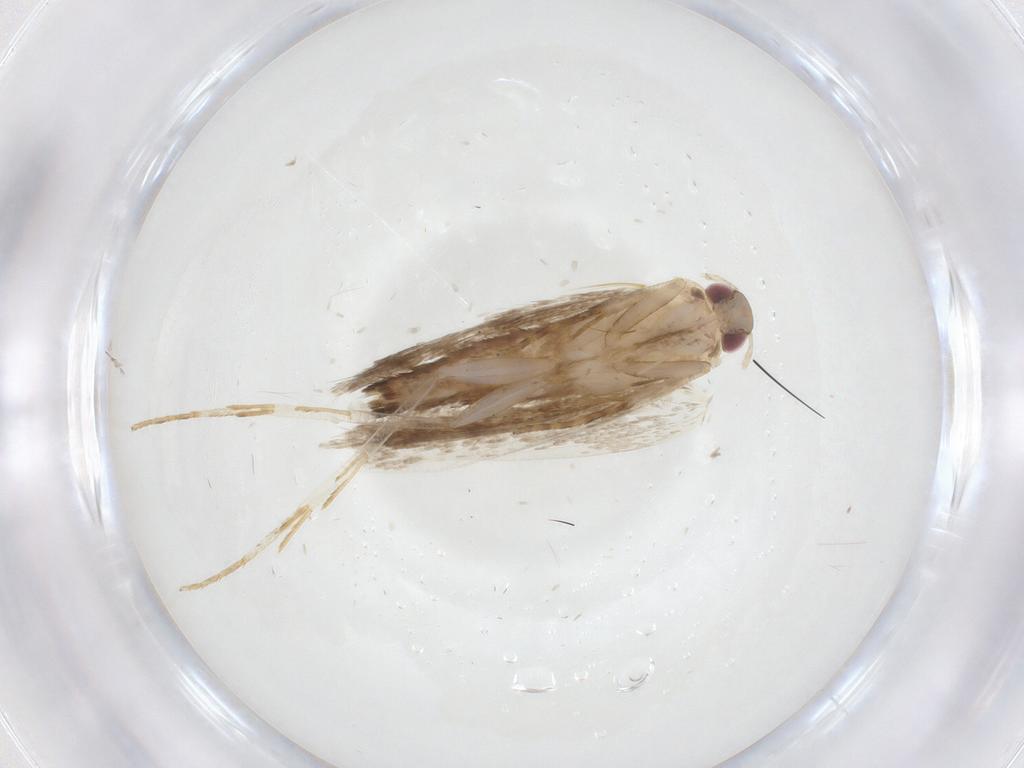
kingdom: Animalia
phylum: Arthropoda
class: Insecta
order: Lepidoptera
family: Gelechiidae
